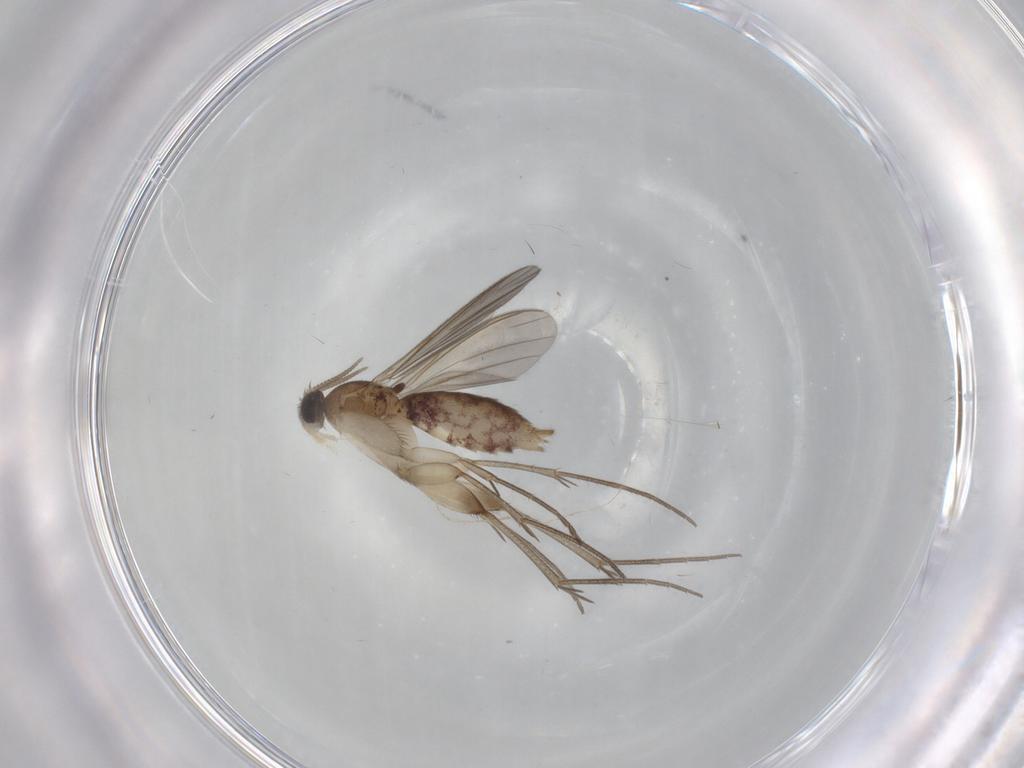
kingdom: Animalia
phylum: Arthropoda
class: Insecta
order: Diptera
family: Mycetophilidae
